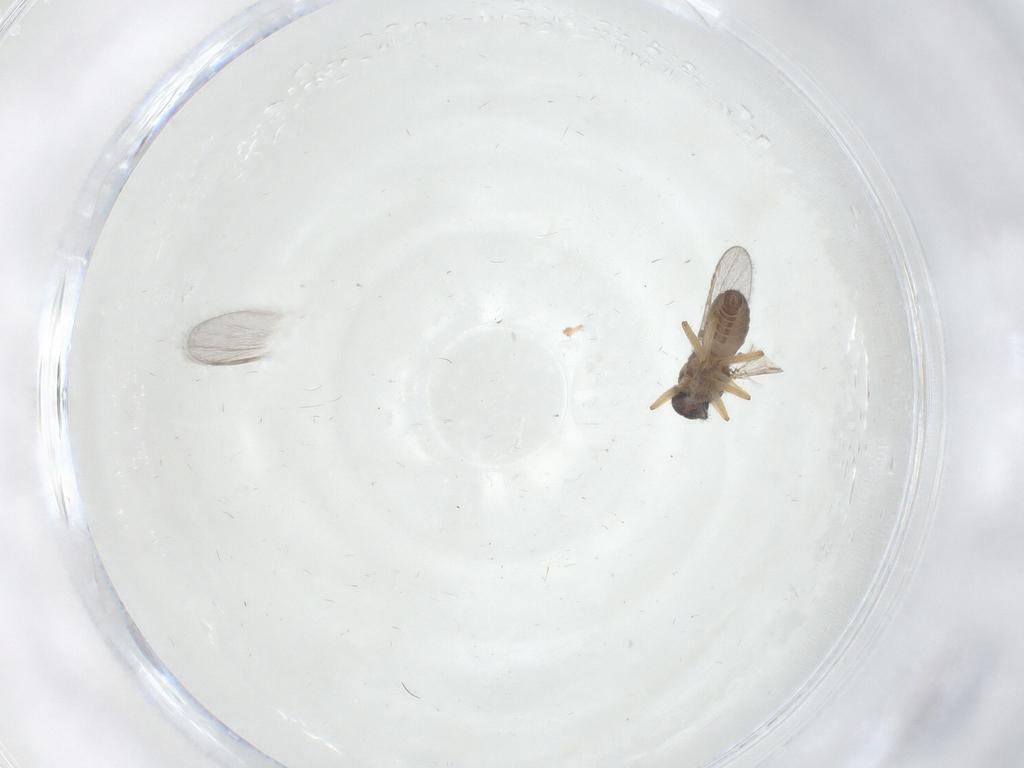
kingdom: Animalia
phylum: Arthropoda
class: Insecta
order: Diptera
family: Ceratopogonidae
